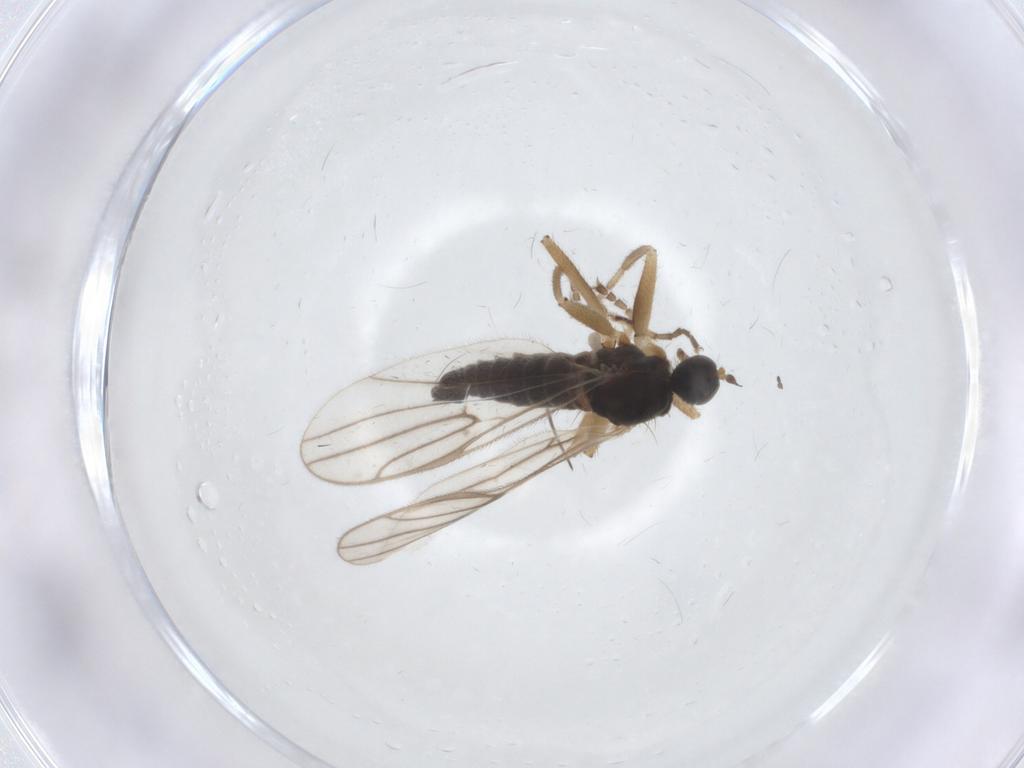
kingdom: Animalia
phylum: Arthropoda
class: Insecta
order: Diptera
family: Hybotidae
